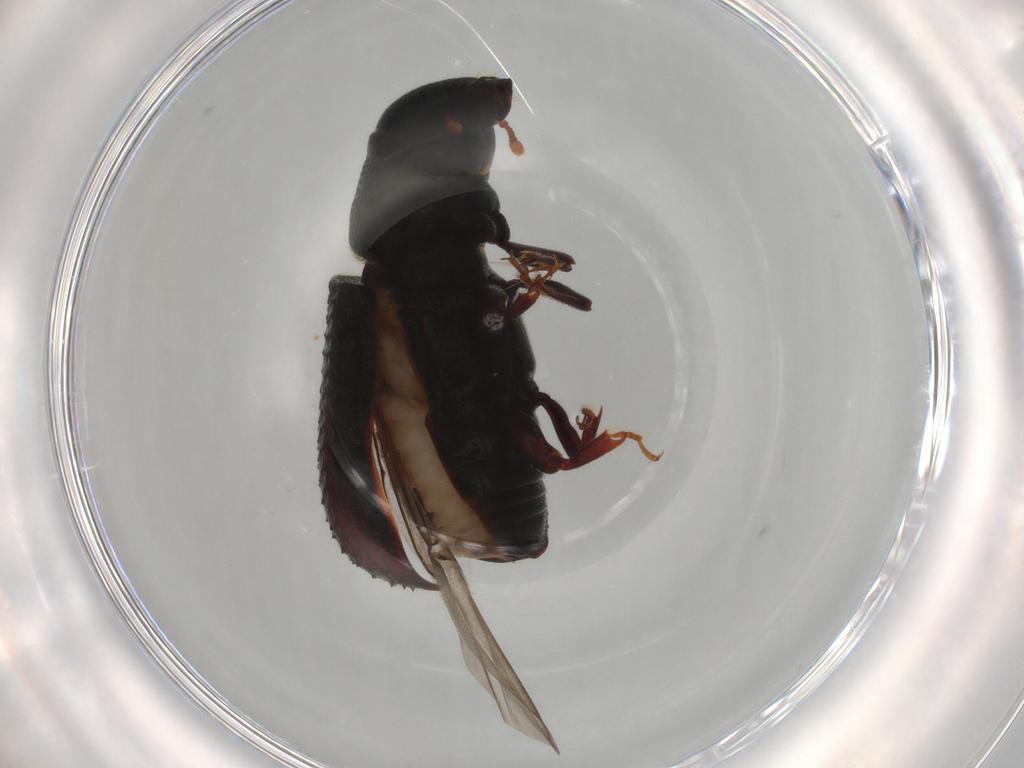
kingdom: Animalia
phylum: Arthropoda
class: Insecta
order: Coleoptera
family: Curculionidae
